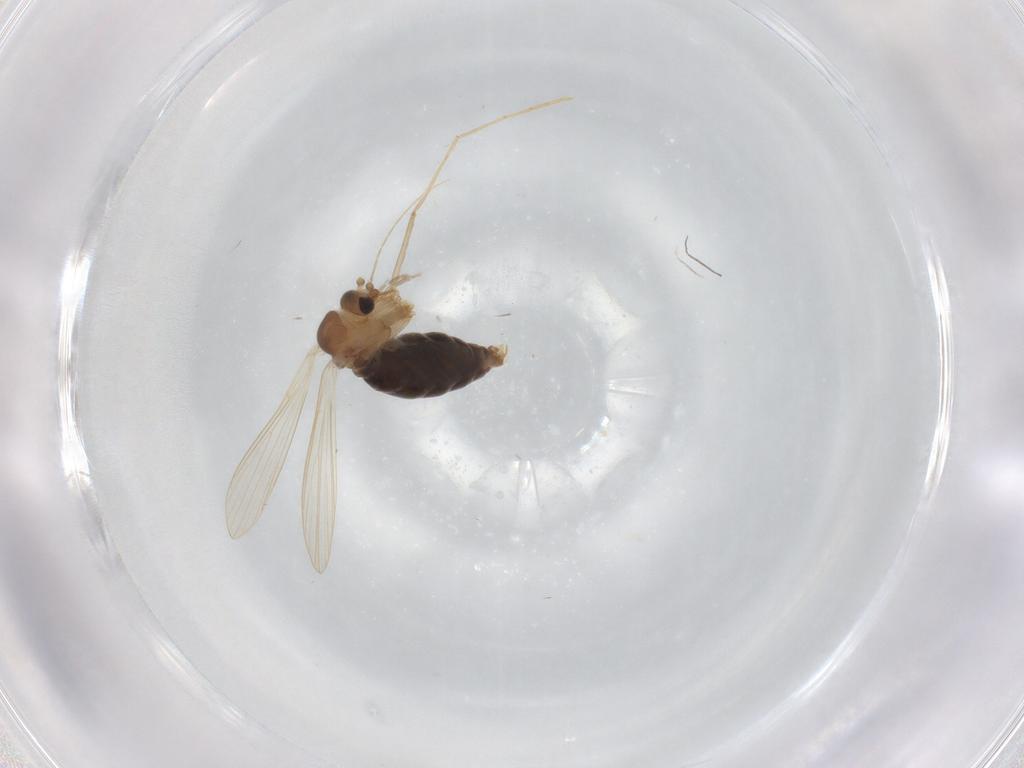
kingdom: Animalia
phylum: Arthropoda
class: Insecta
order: Diptera
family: Psychodidae
